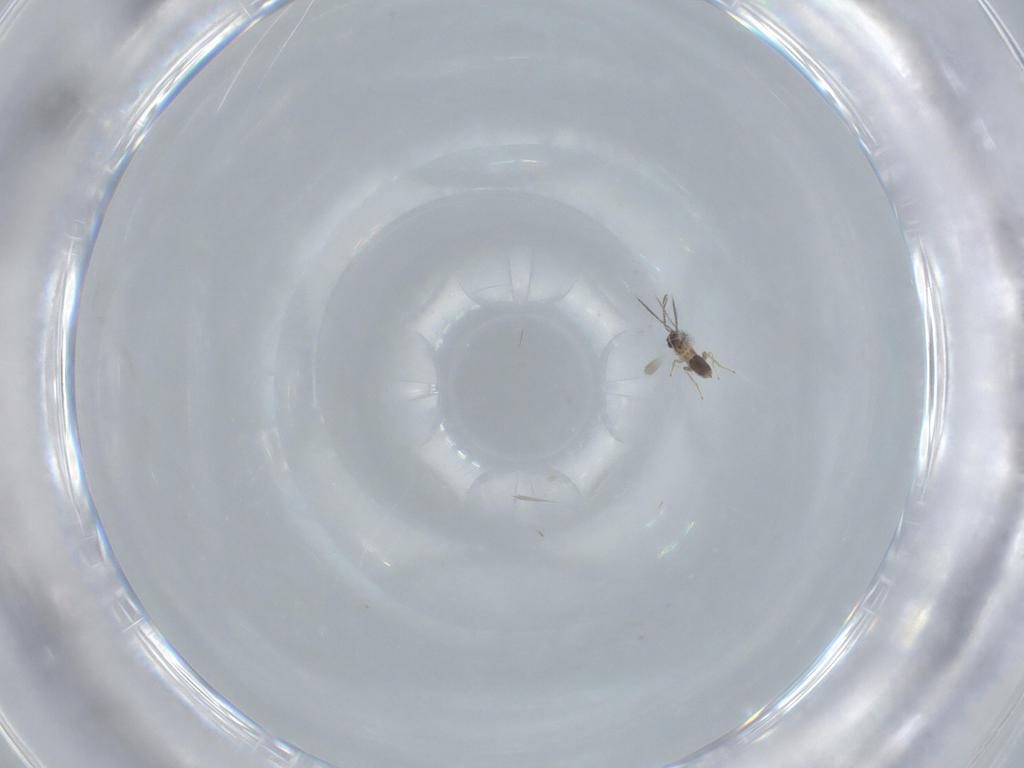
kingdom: Animalia
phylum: Arthropoda
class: Insecta
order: Hymenoptera
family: Mymaridae
